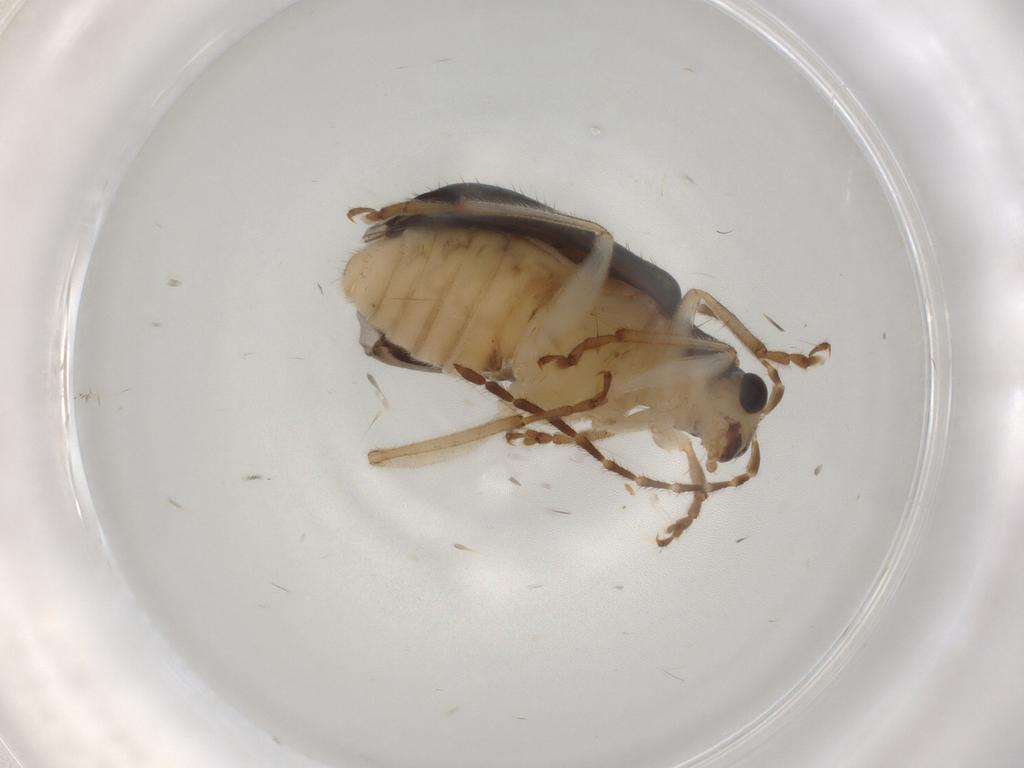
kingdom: Animalia
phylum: Arthropoda
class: Insecta
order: Coleoptera
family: Chrysomelidae
